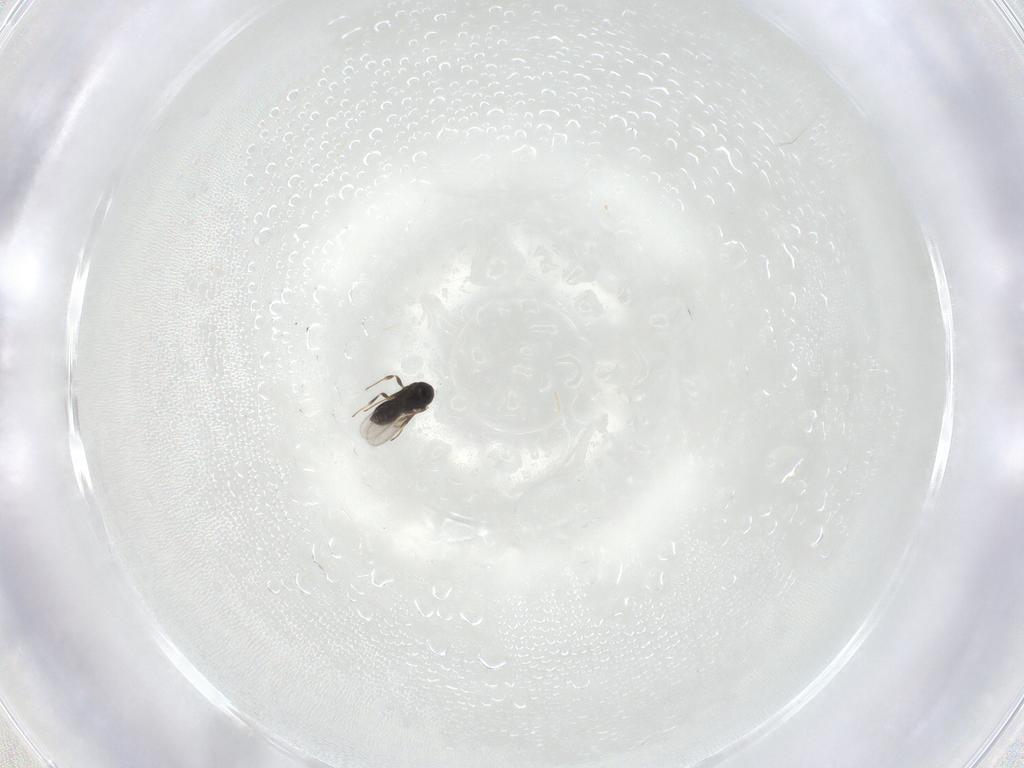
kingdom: Animalia
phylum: Arthropoda
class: Insecta
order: Hymenoptera
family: Scelionidae
